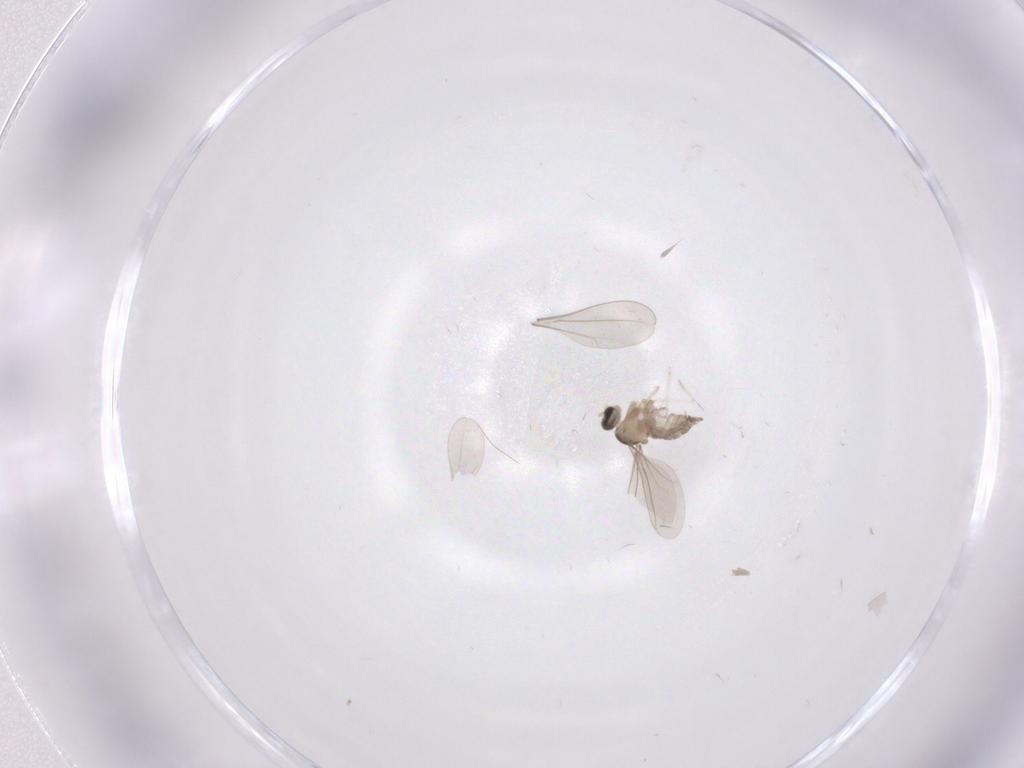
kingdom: Animalia
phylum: Arthropoda
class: Insecta
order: Diptera
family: Cecidomyiidae
